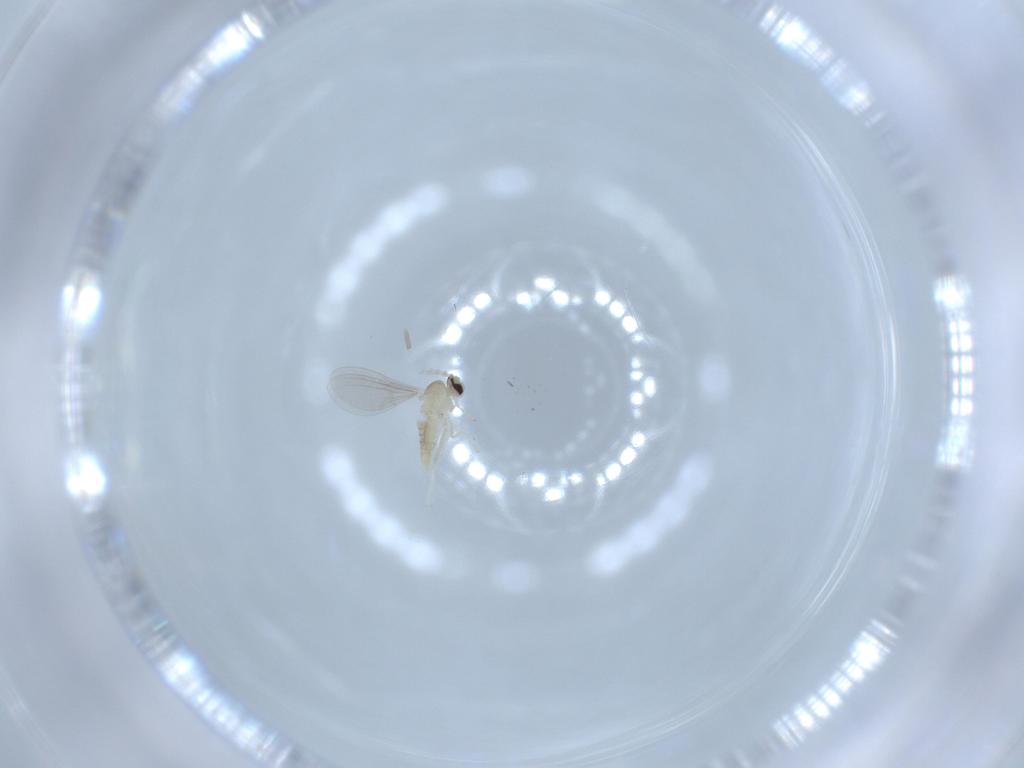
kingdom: Animalia
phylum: Arthropoda
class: Insecta
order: Diptera
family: Cecidomyiidae
